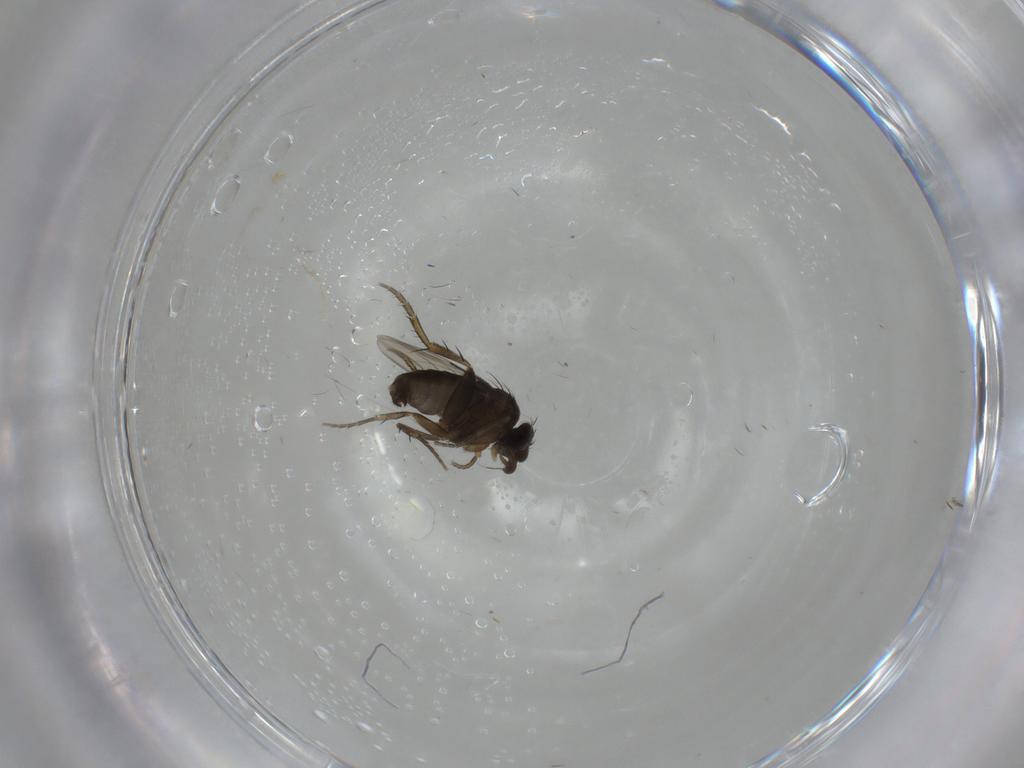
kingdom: Animalia
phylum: Arthropoda
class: Insecta
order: Diptera
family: Phoridae
